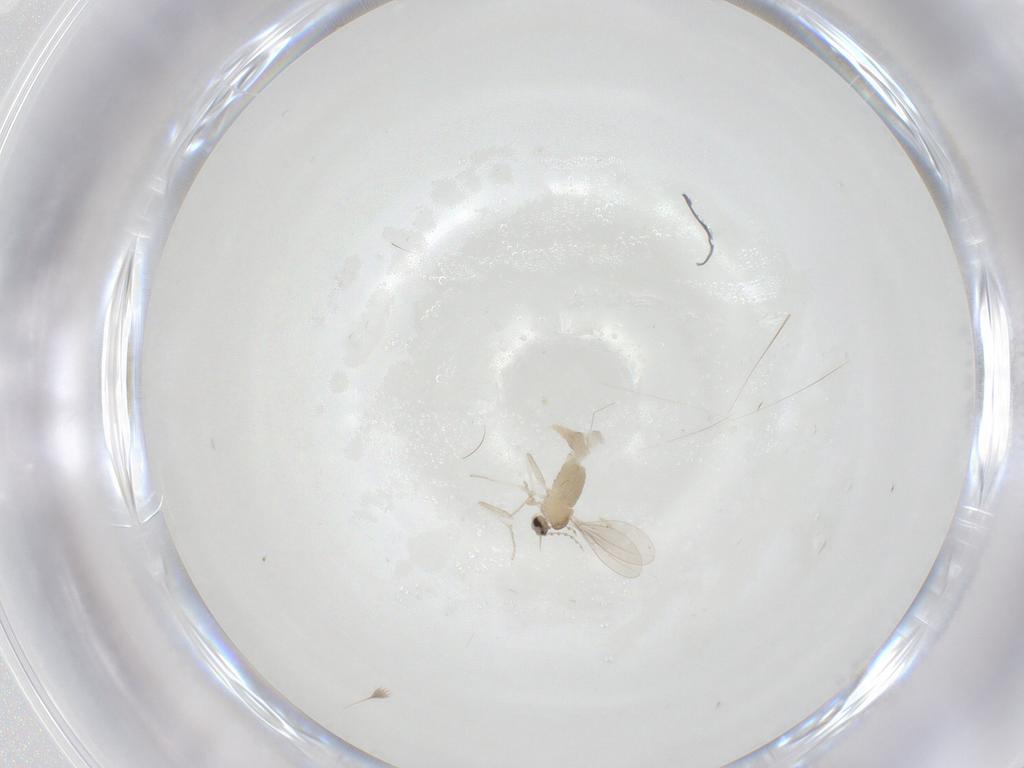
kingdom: Animalia
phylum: Arthropoda
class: Insecta
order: Diptera
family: Cecidomyiidae
